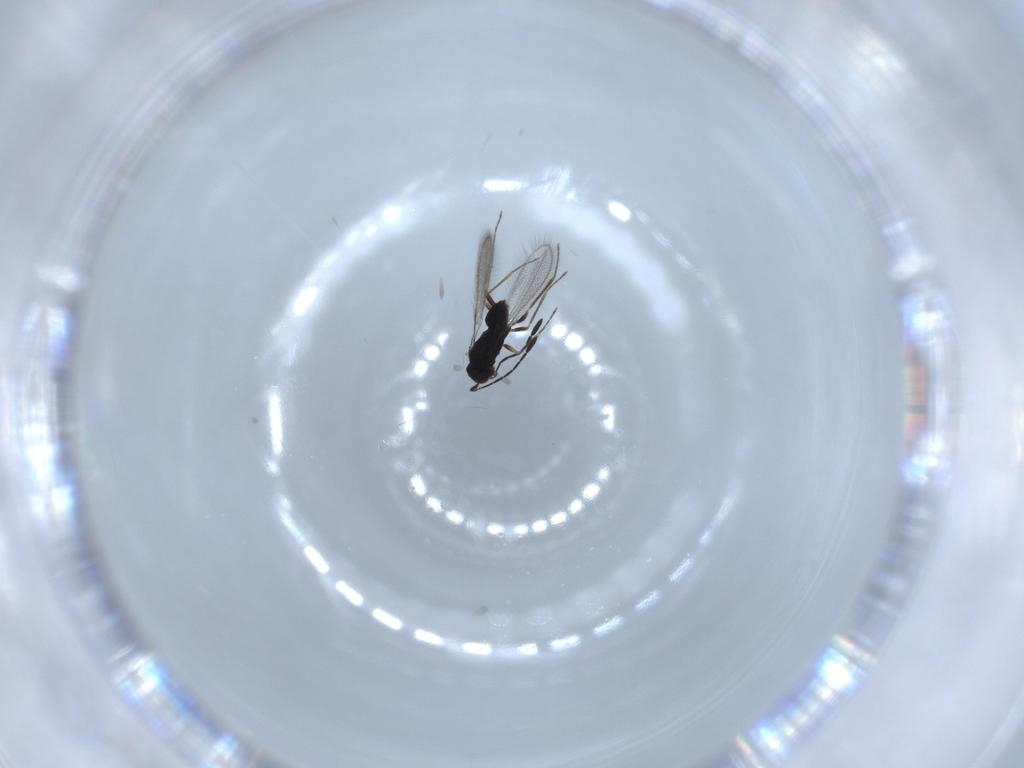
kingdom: Animalia
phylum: Arthropoda
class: Insecta
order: Hymenoptera
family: Mymaridae
